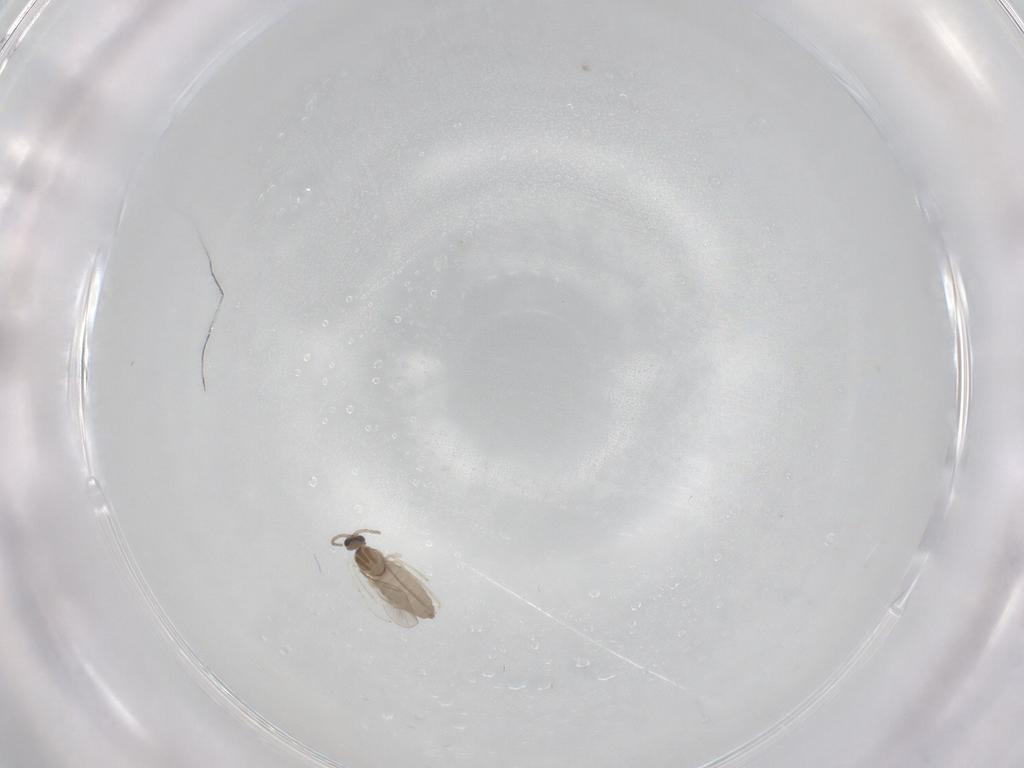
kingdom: Animalia
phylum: Arthropoda
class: Insecta
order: Diptera
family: Cecidomyiidae
